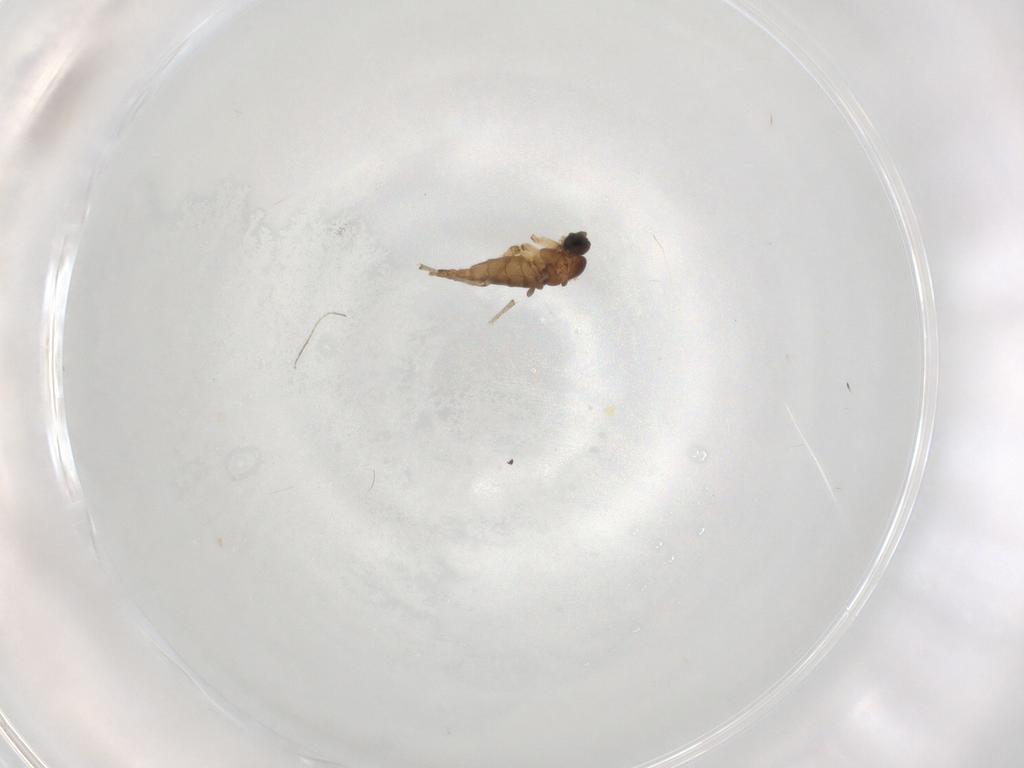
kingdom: Animalia
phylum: Arthropoda
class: Insecta
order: Diptera
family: Sciaridae
